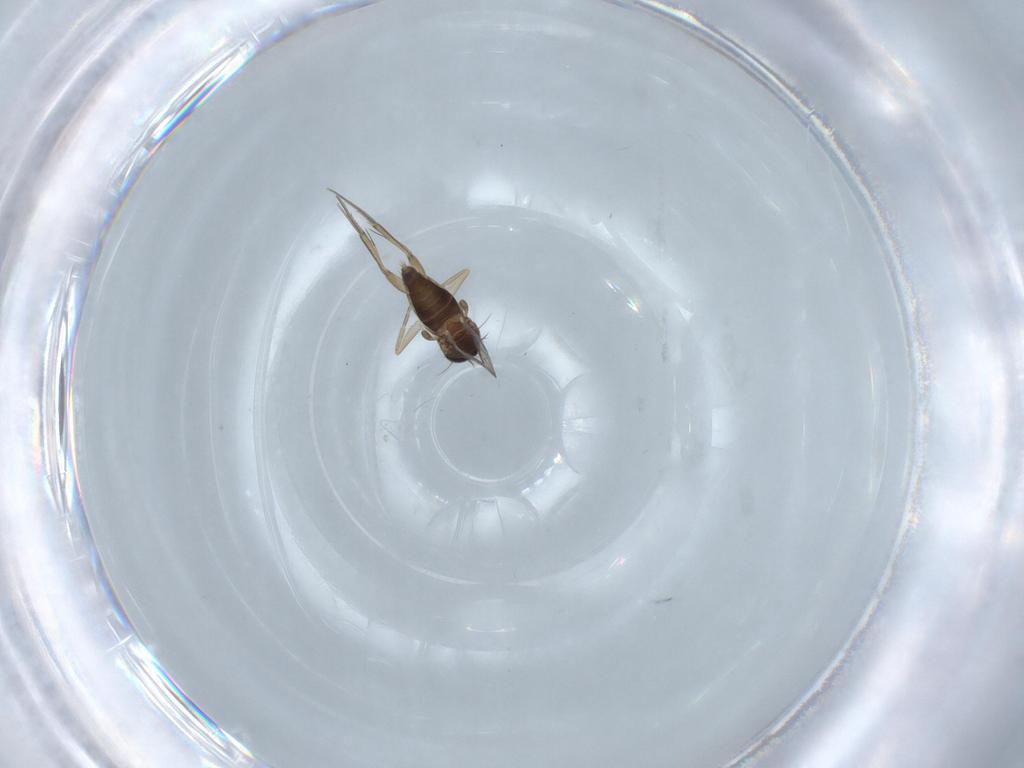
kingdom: Animalia
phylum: Arthropoda
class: Insecta
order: Diptera
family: Phoridae
